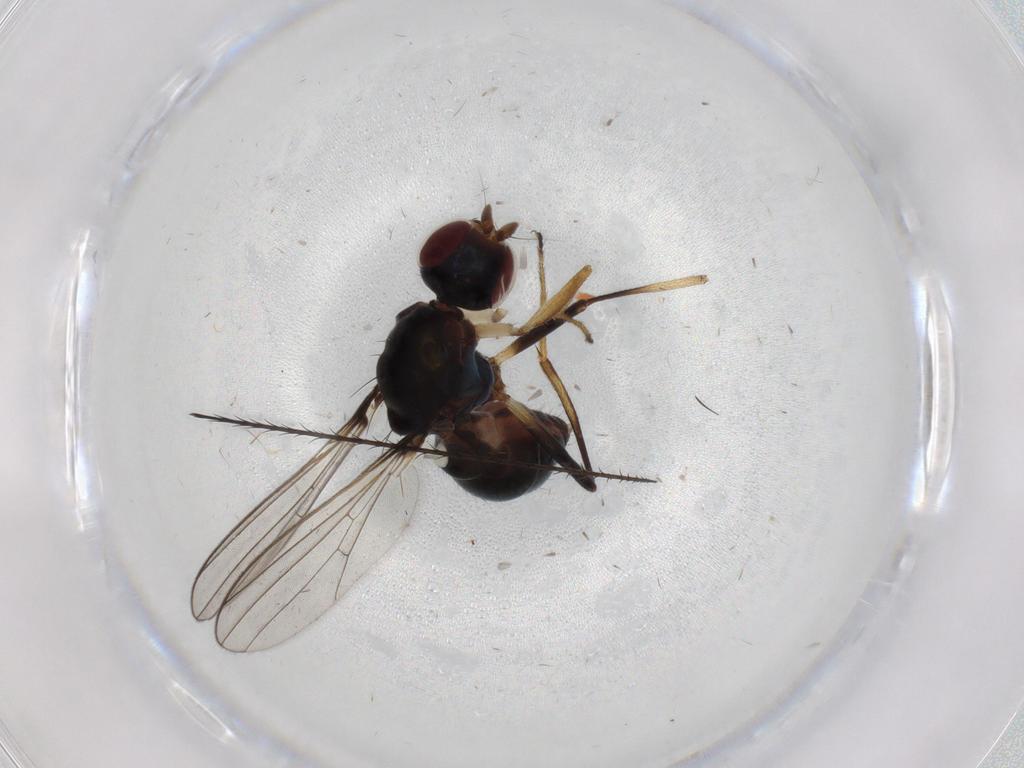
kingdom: Animalia
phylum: Arthropoda
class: Insecta
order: Diptera
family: Sepsidae
